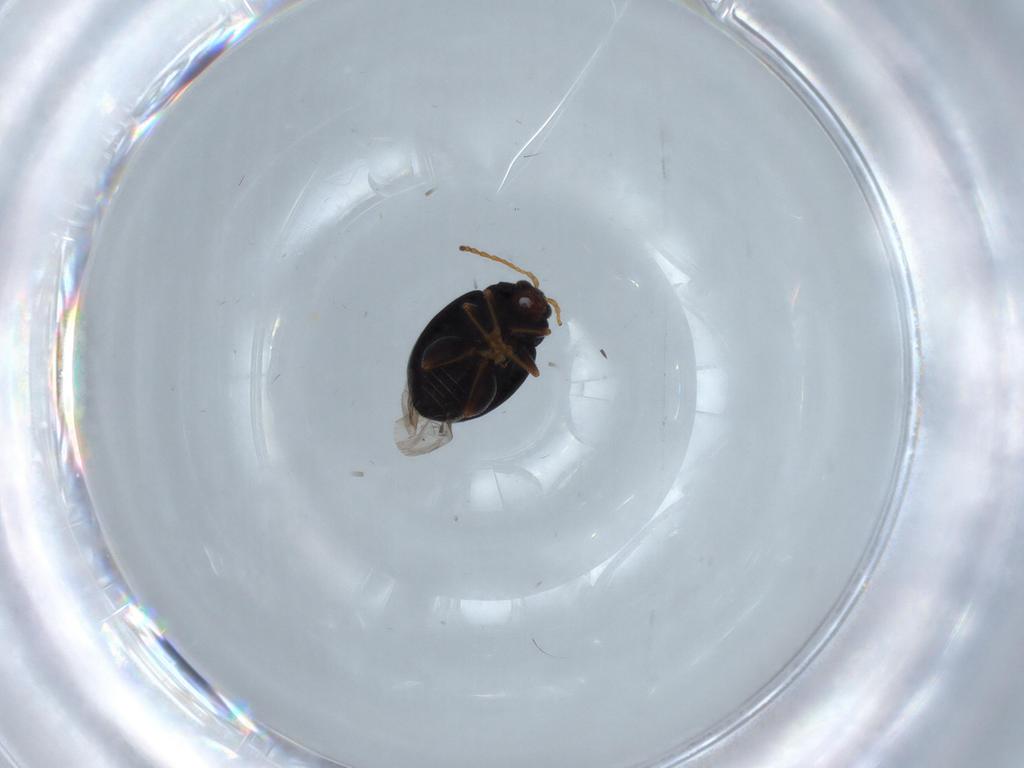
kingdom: Animalia
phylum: Arthropoda
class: Insecta
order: Coleoptera
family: Chrysomelidae
